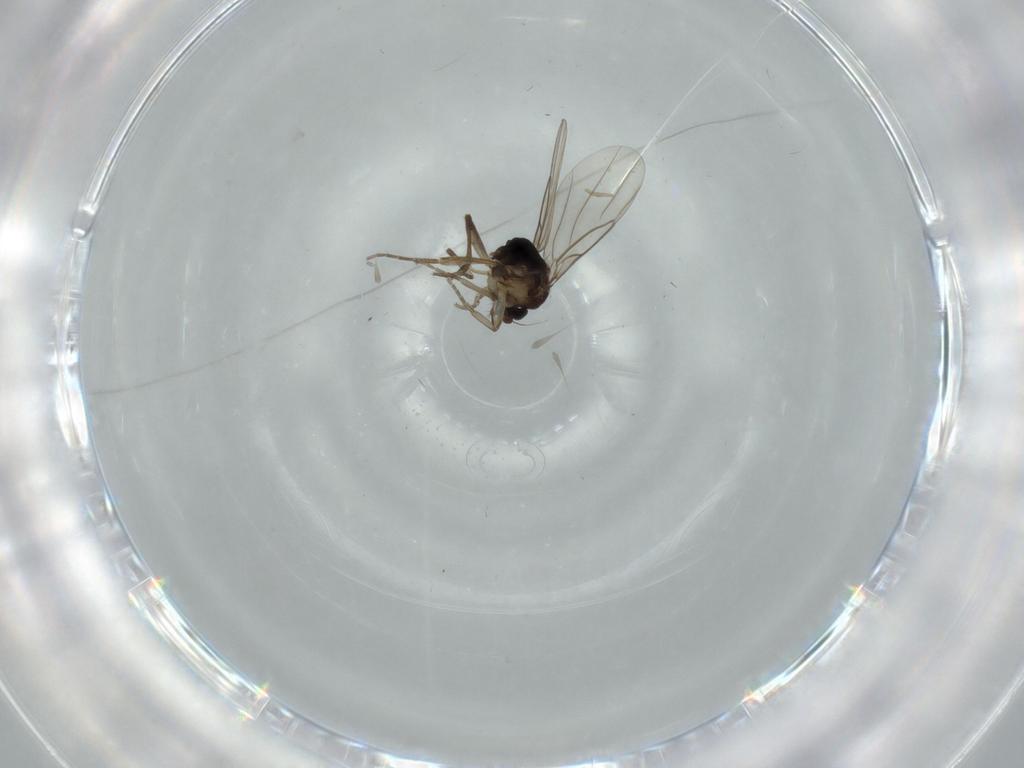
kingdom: Animalia
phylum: Arthropoda
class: Insecta
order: Diptera
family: Phoridae
